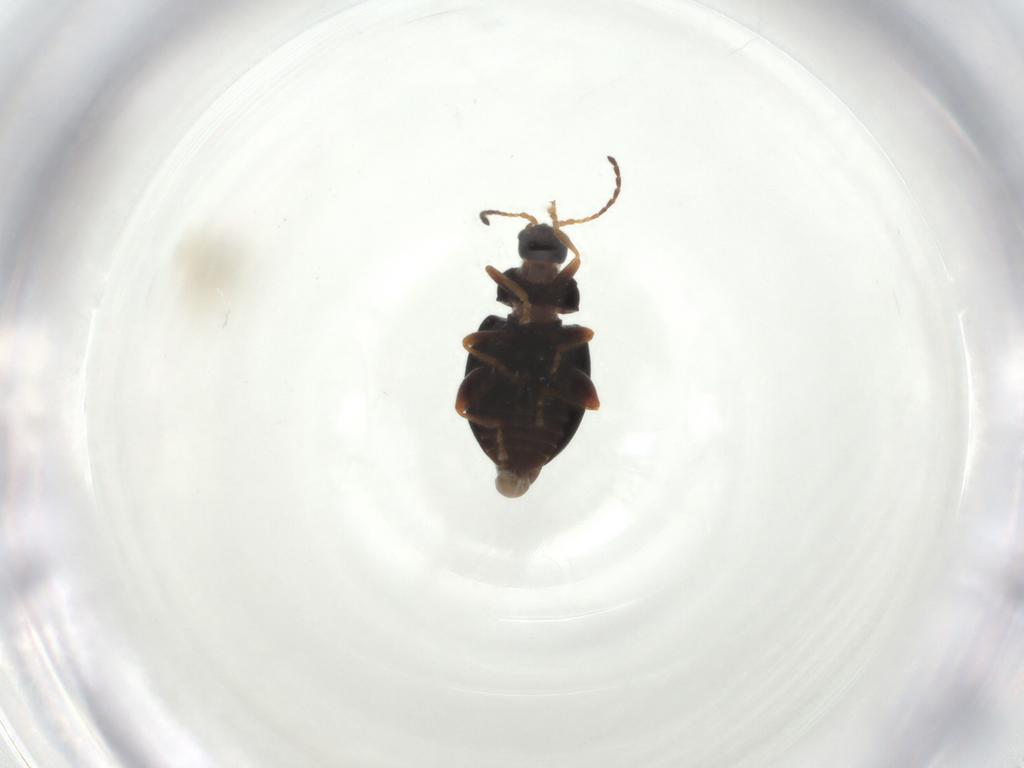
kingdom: Animalia
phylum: Arthropoda
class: Insecta
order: Coleoptera
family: Chrysomelidae
